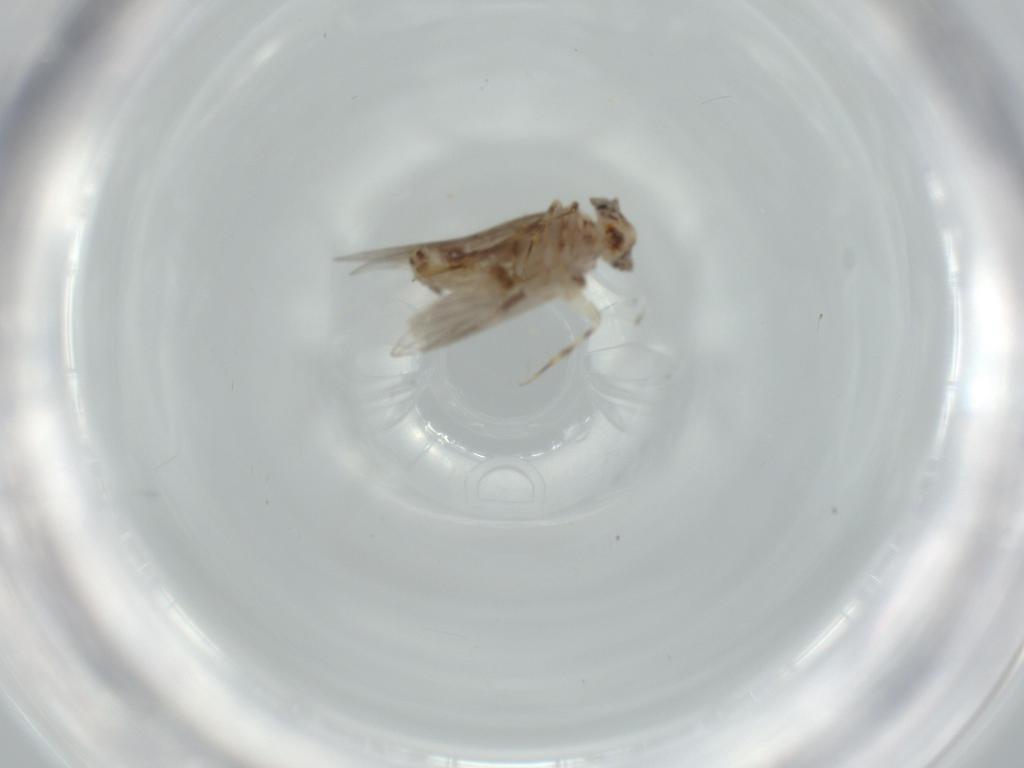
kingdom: Animalia
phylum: Arthropoda
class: Insecta
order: Psocodea
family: Lepidopsocidae
